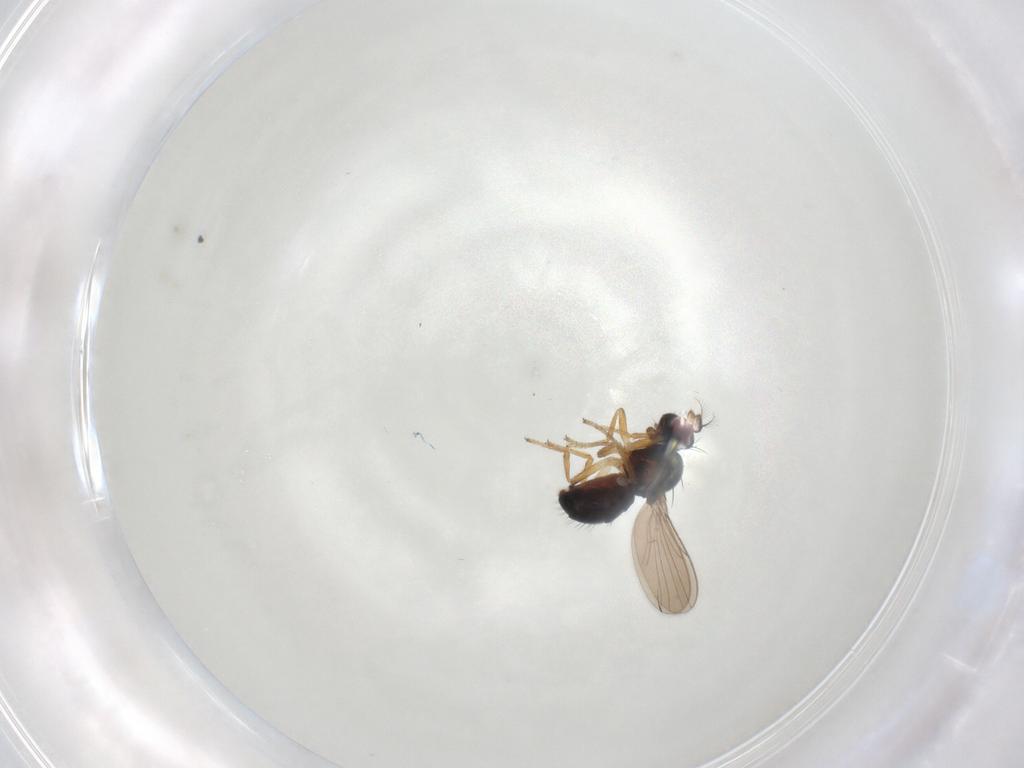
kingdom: Animalia
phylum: Arthropoda
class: Insecta
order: Diptera
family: Ephydridae
